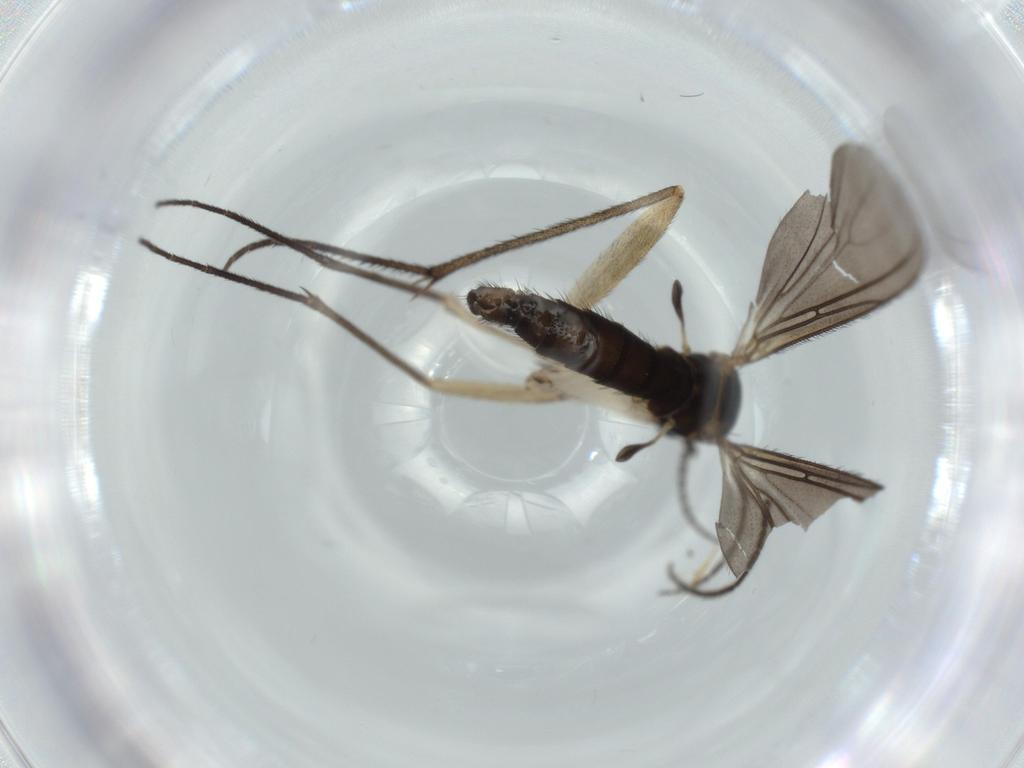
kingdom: Animalia
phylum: Arthropoda
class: Insecta
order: Diptera
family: Sciaridae
